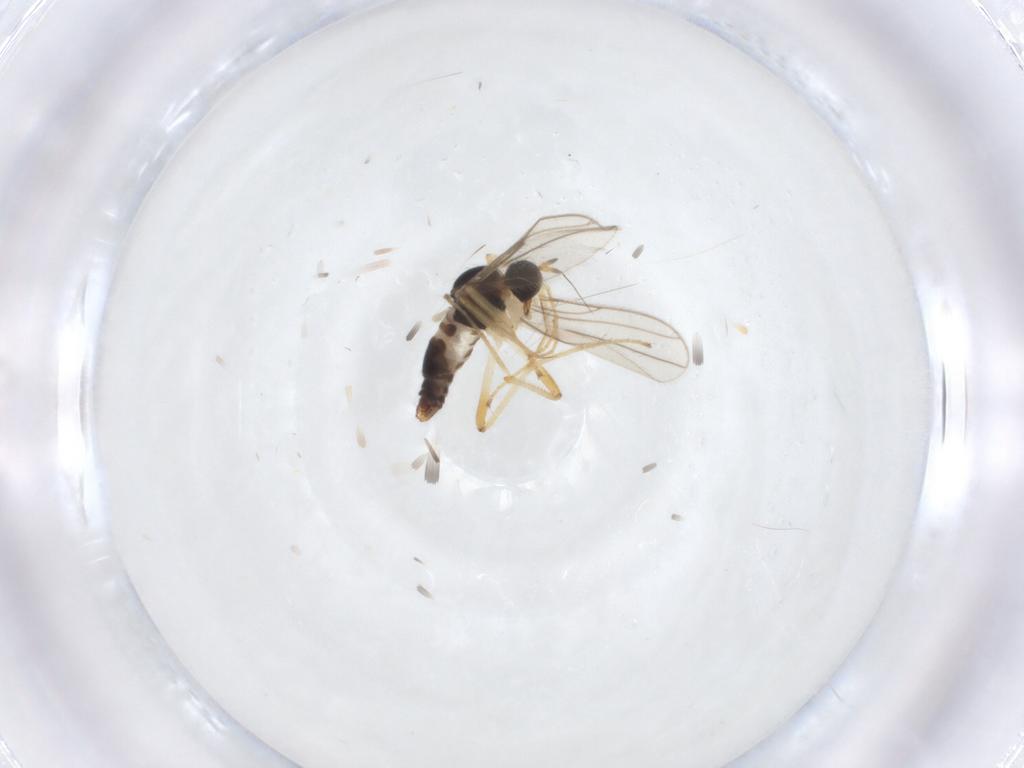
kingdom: Animalia
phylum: Arthropoda
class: Insecta
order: Diptera
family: Hybotidae
